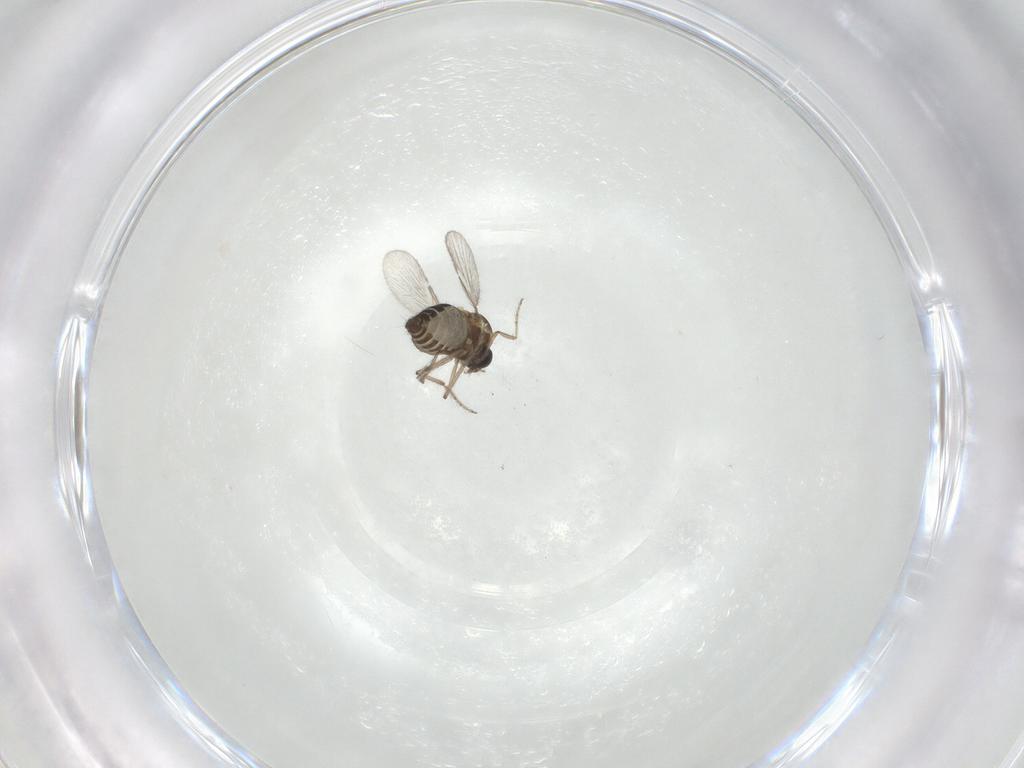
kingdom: Animalia
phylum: Arthropoda
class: Insecta
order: Diptera
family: Ceratopogonidae
